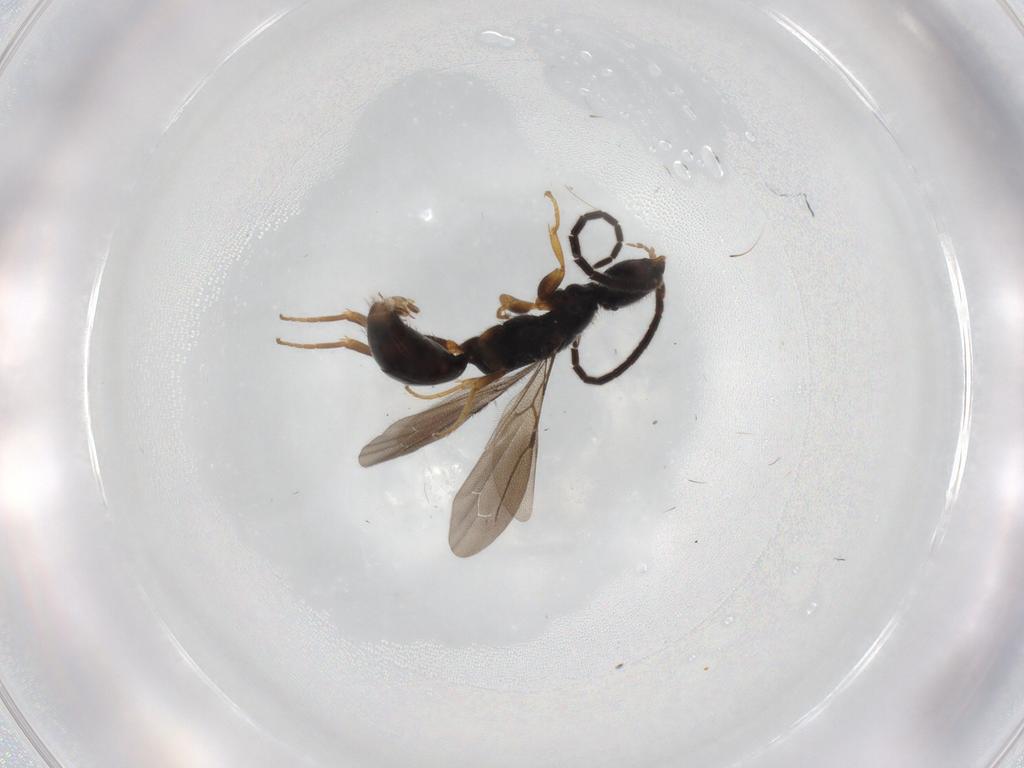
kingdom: Animalia
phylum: Arthropoda
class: Insecta
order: Hymenoptera
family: Bethylidae
